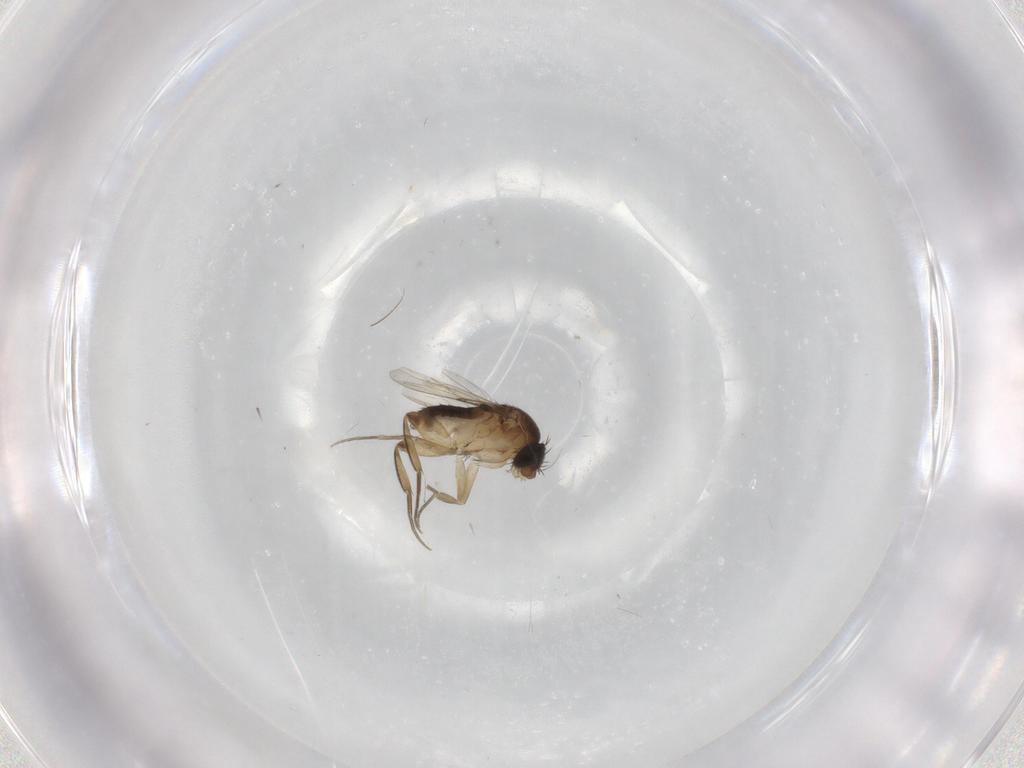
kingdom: Animalia
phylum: Arthropoda
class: Insecta
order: Diptera
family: Phoridae
